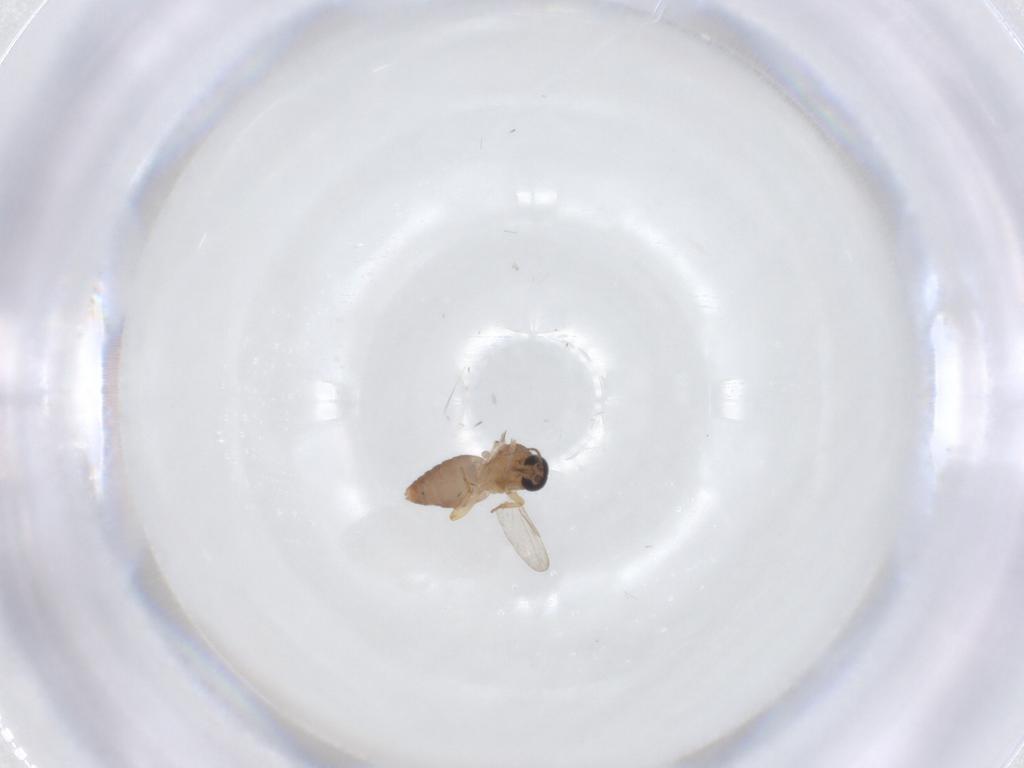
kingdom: Animalia
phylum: Arthropoda
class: Insecta
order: Diptera
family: Ceratopogonidae
